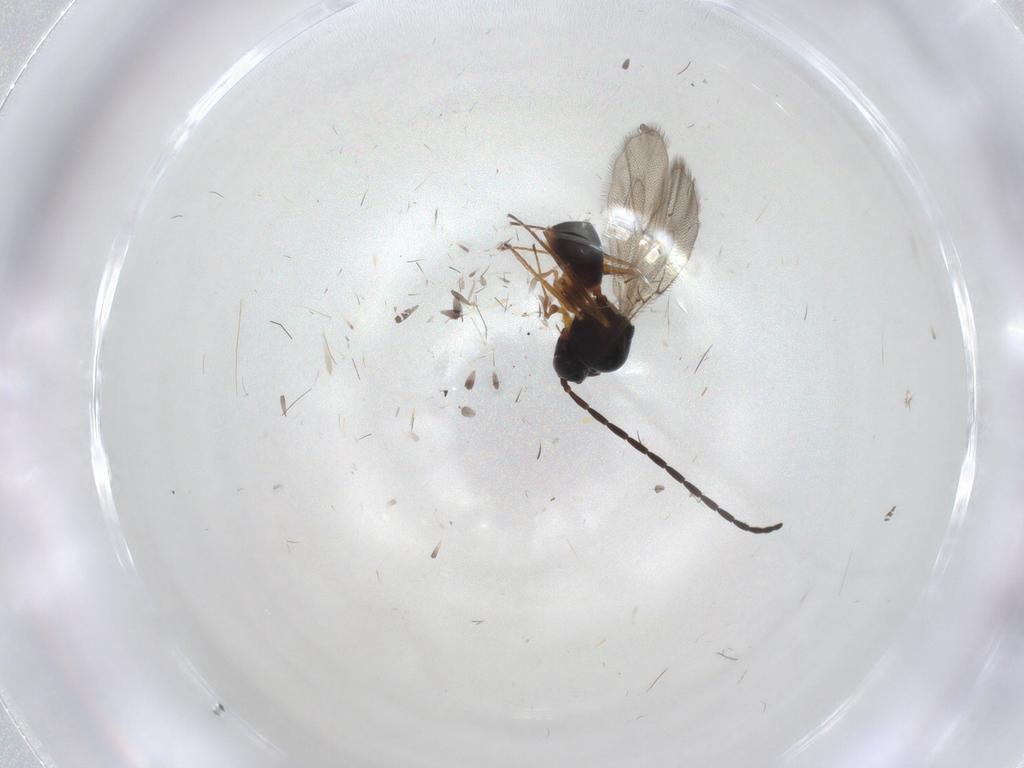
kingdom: Animalia
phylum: Arthropoda
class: Insecta
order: Hymenoptera
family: Figitidae
